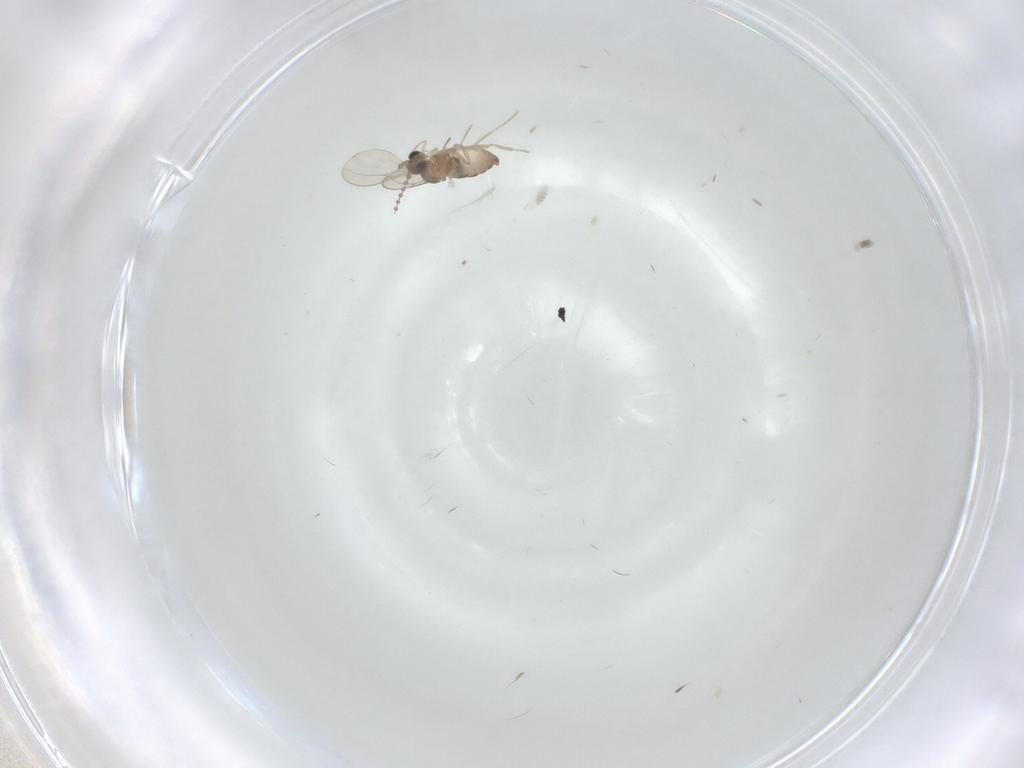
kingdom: Animalia
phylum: Arthropoda
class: Insecta
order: Diptera
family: Cecidomyiidae
